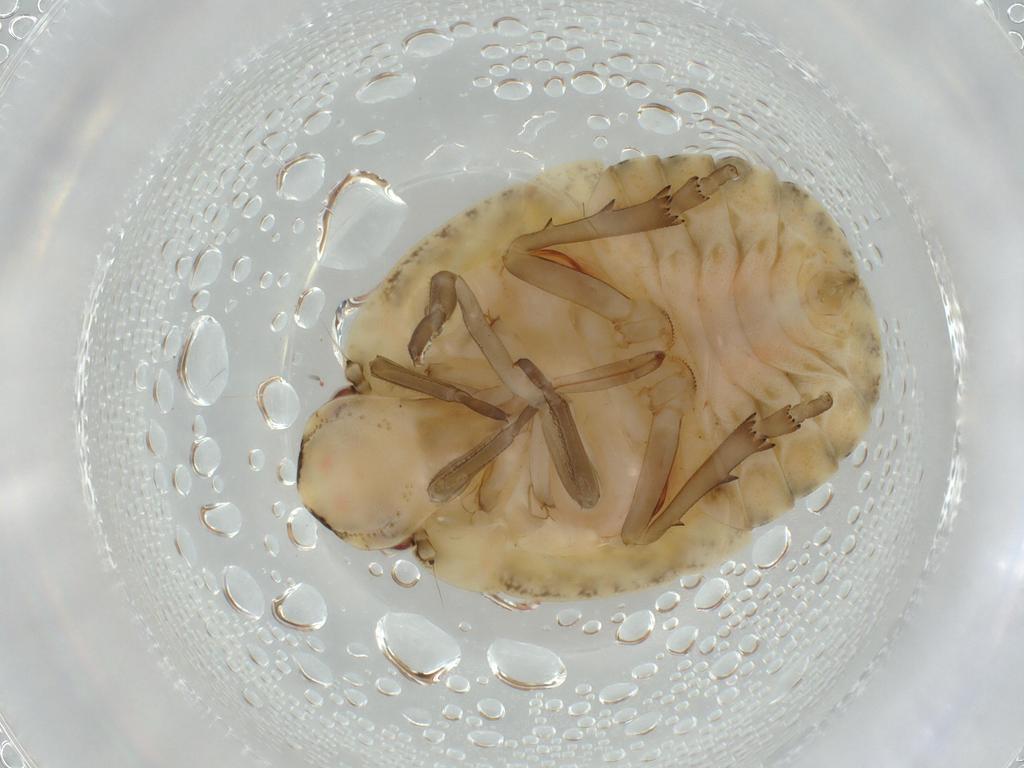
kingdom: Animalia
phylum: Arthropoda
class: Insecta
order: Hemiptera
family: Flatidae
